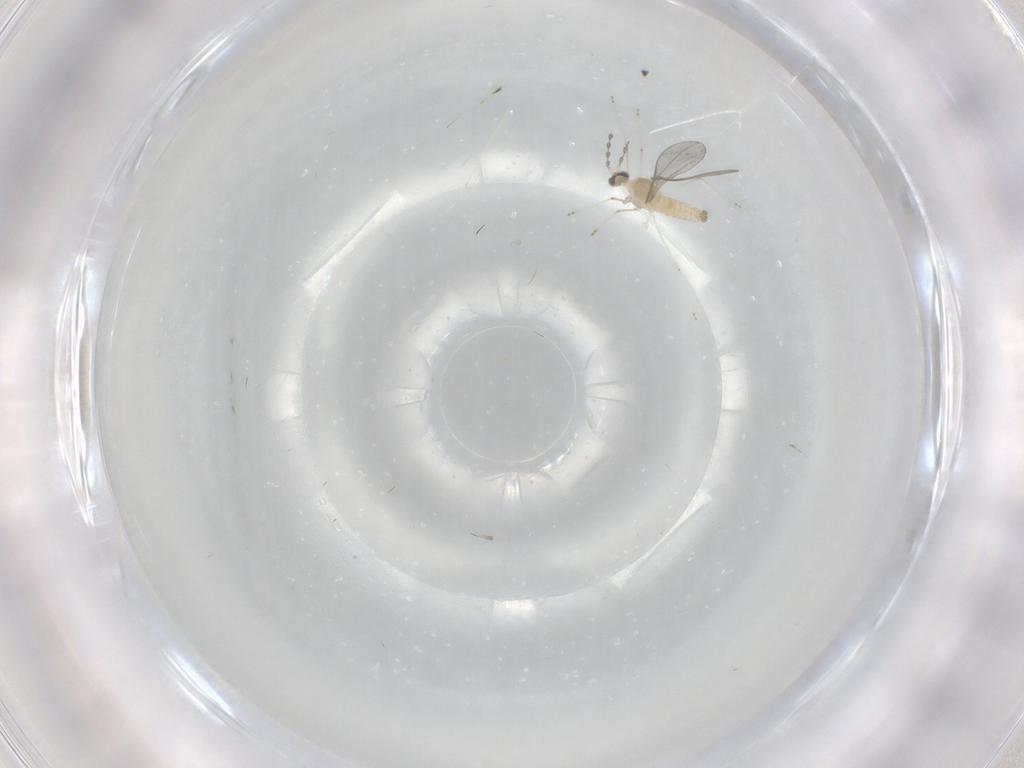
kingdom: Animalia
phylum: Arthropoda
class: Insecta
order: Diptera
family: Cecidomyiidae
